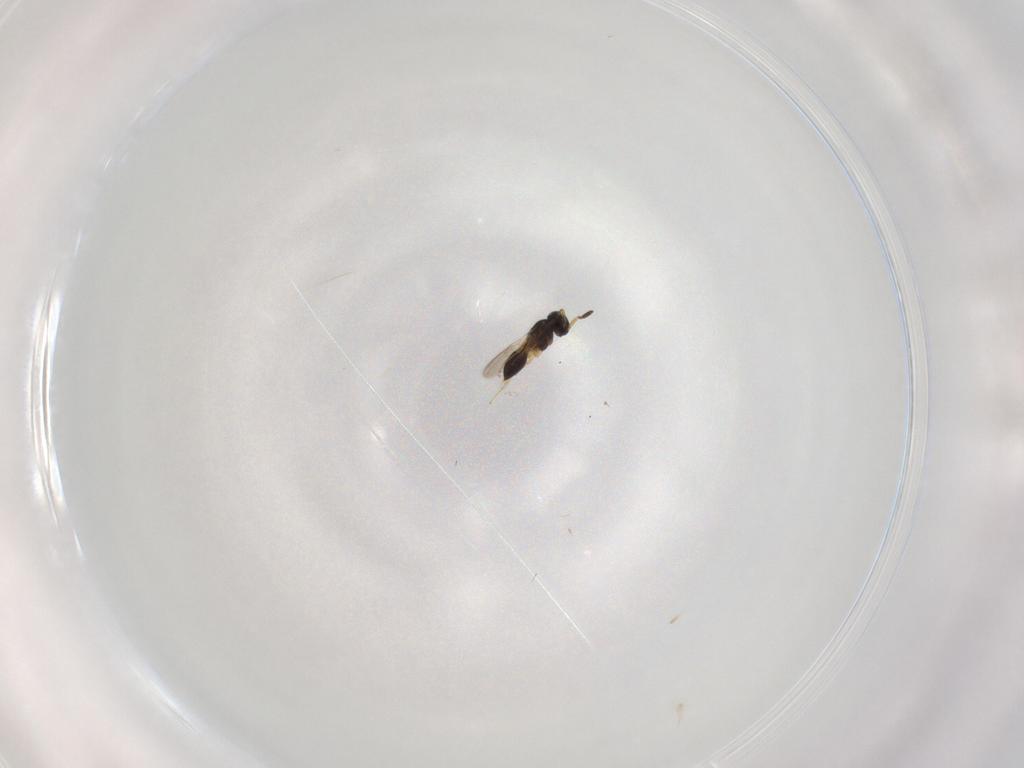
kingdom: Animalia
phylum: Arthropoda
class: Insecta
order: Hymenoptera
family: Scelionidae
